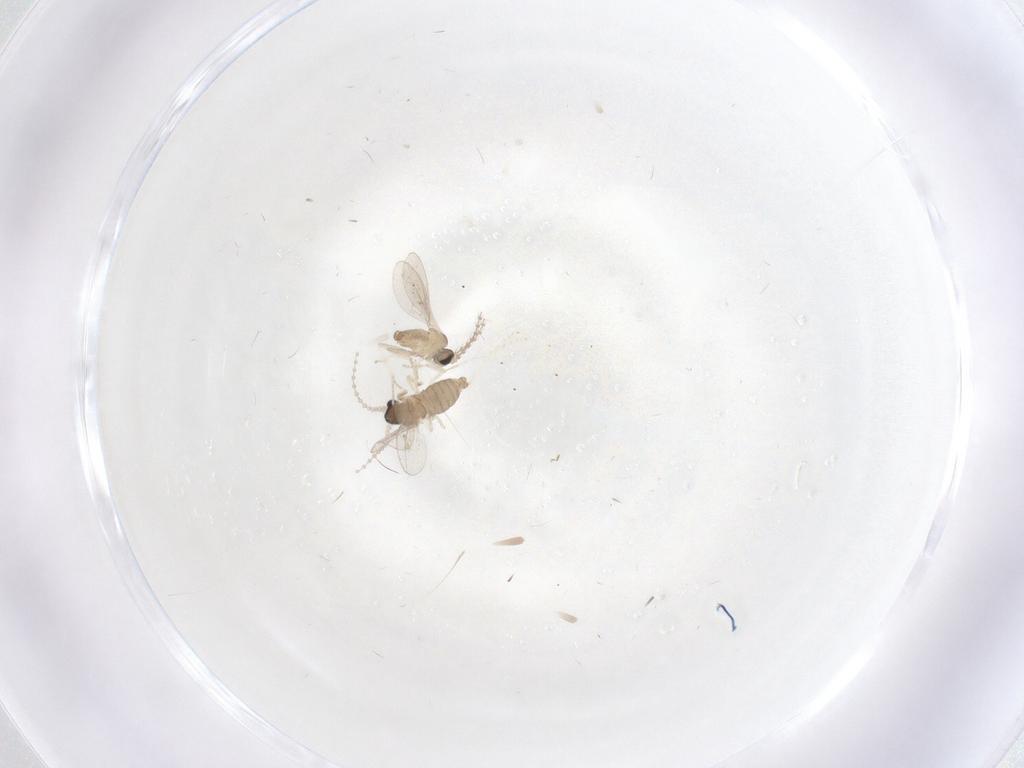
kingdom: Animalia
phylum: Arthropoda
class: Insecta
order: Diptera
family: Cecidomyiidae
